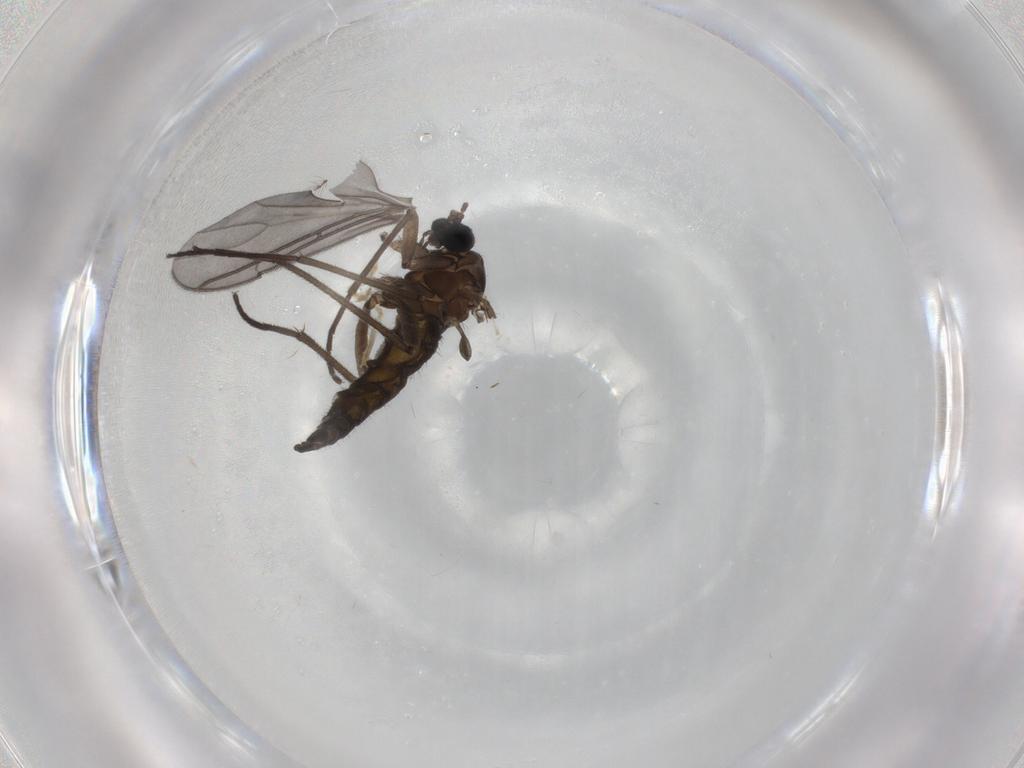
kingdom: Animalia
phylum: Arthropoda
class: Insecta
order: Diptera
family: Sciaridae
